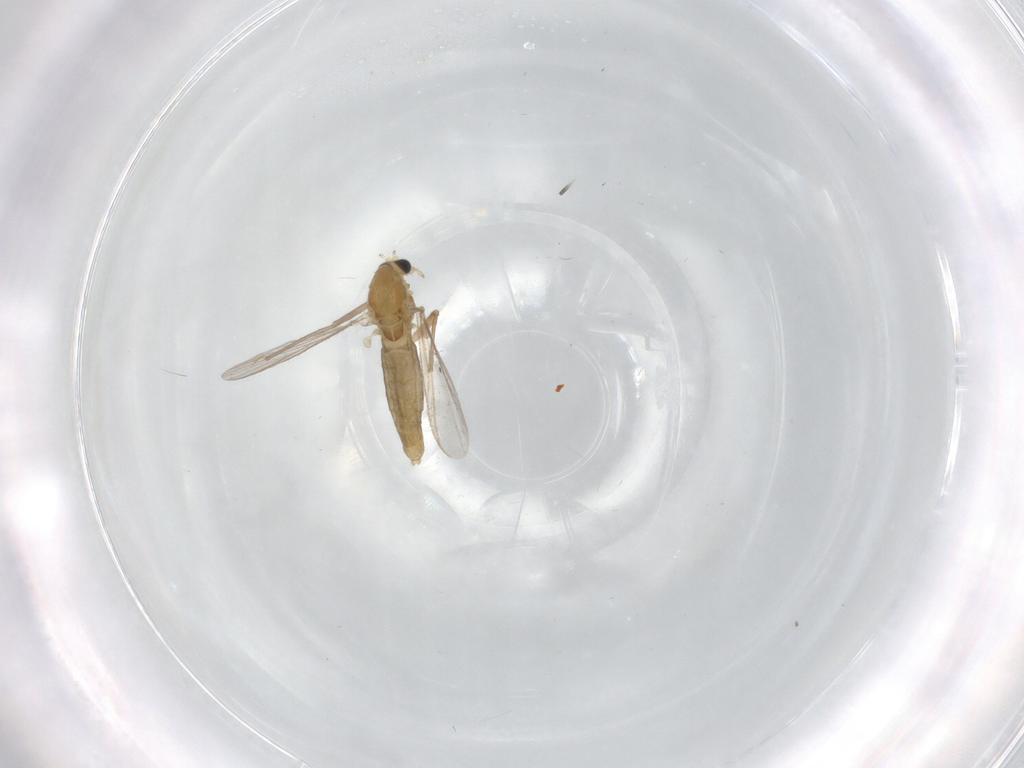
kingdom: Animalia
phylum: Arthropoda
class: Insecta
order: Diptera
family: Chironomidae
